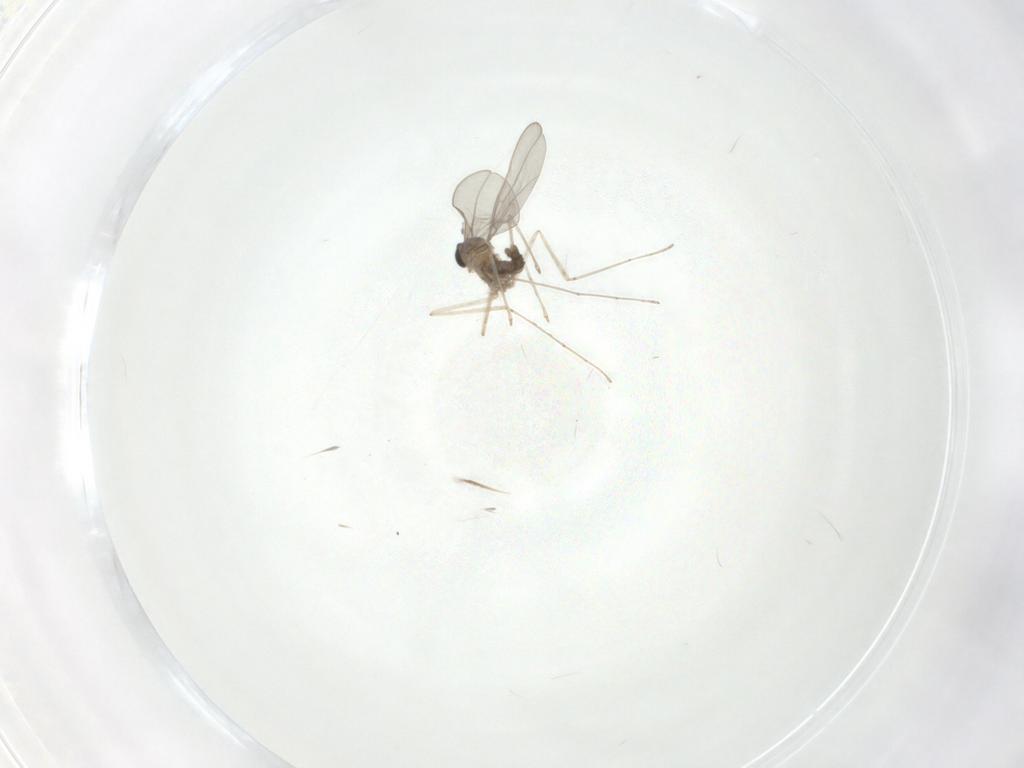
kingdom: Animalia
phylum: Arthropoda
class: Insecta
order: Diptera
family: Ceratopogonidae
